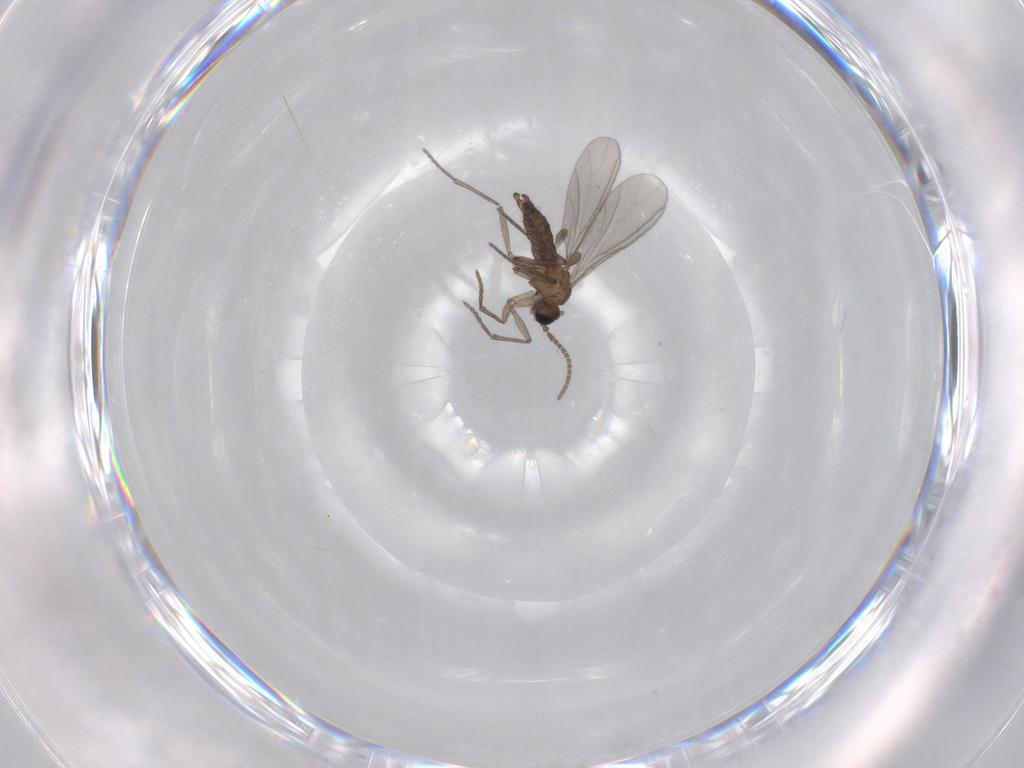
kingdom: Animalia
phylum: Arthropoda
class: Insecta
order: Diptera
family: Sciaridae
